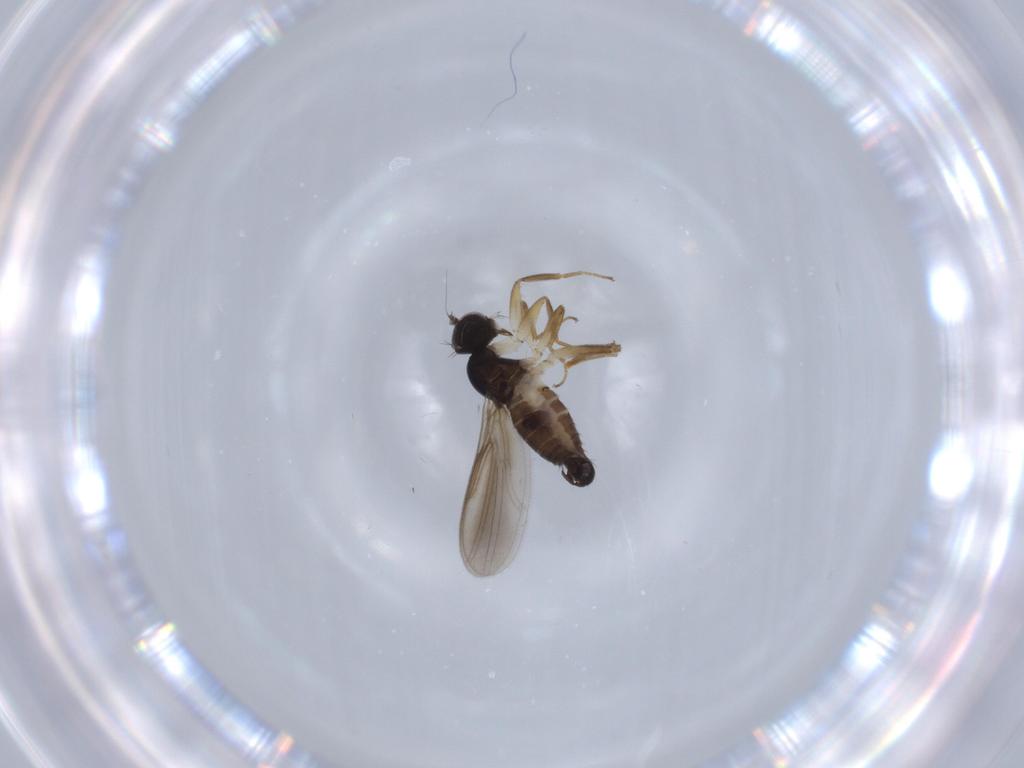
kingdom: Animalia
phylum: Arthropoda
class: Insecta
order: Diptera
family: Hybotidae
